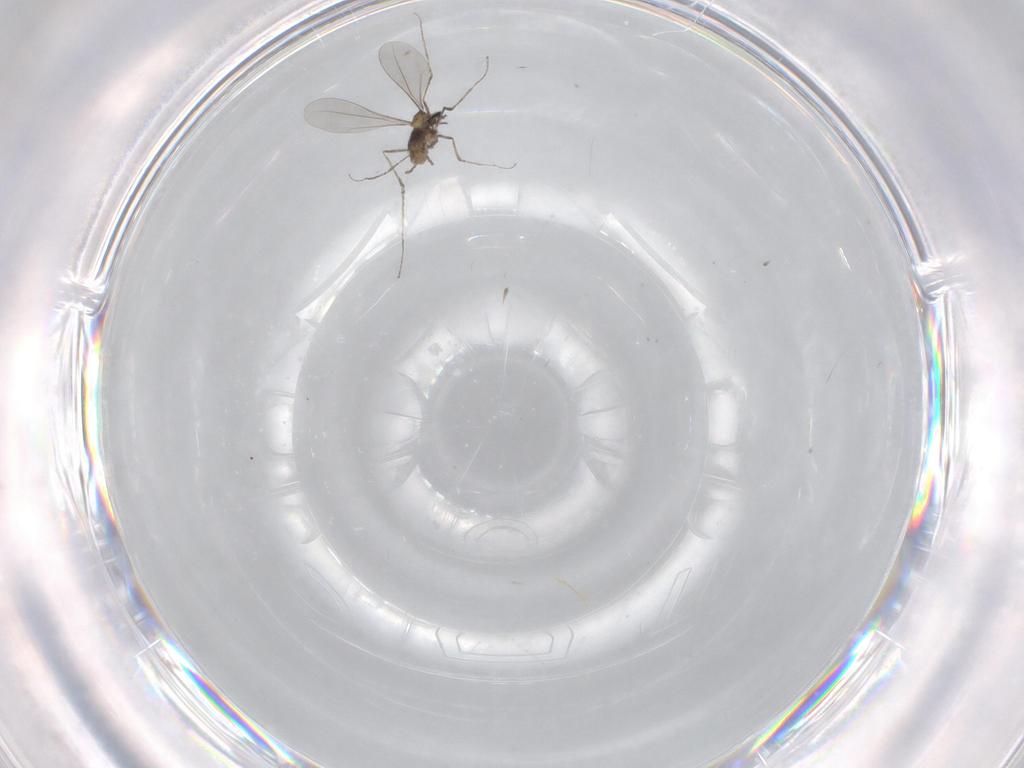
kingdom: Animalia
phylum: Arthropoda
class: Insecta
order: Diptera
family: Cecidomyiidae
